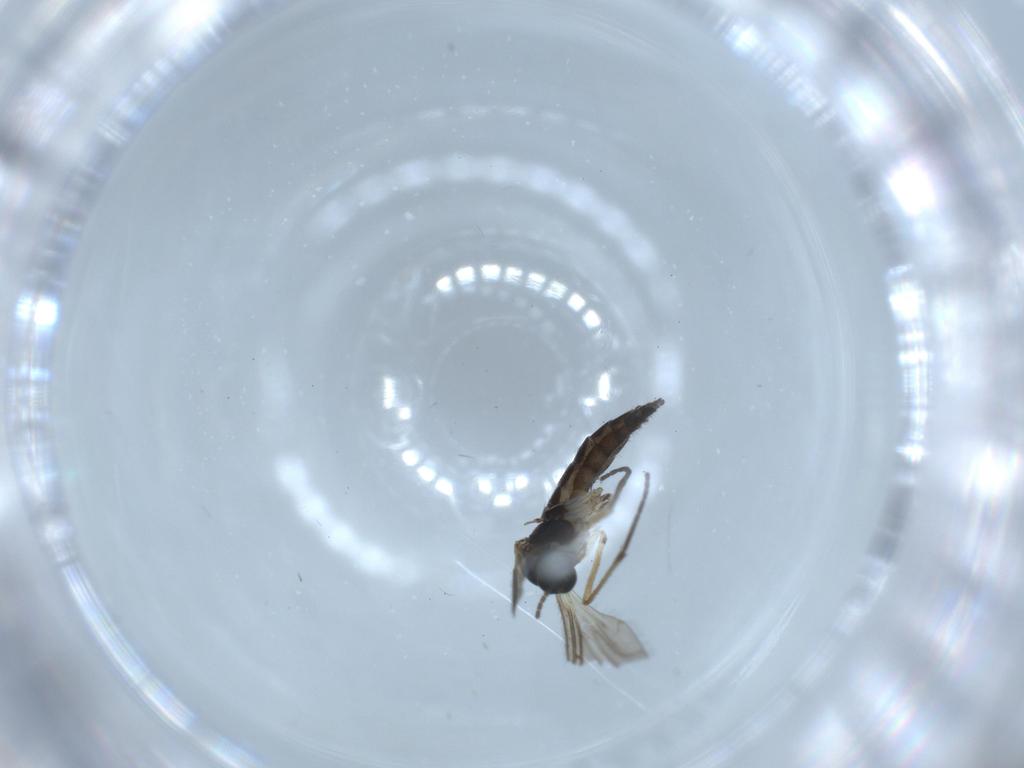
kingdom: Animalia
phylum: Arthropoda
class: Insecta
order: Diptera
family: Sciaridae
